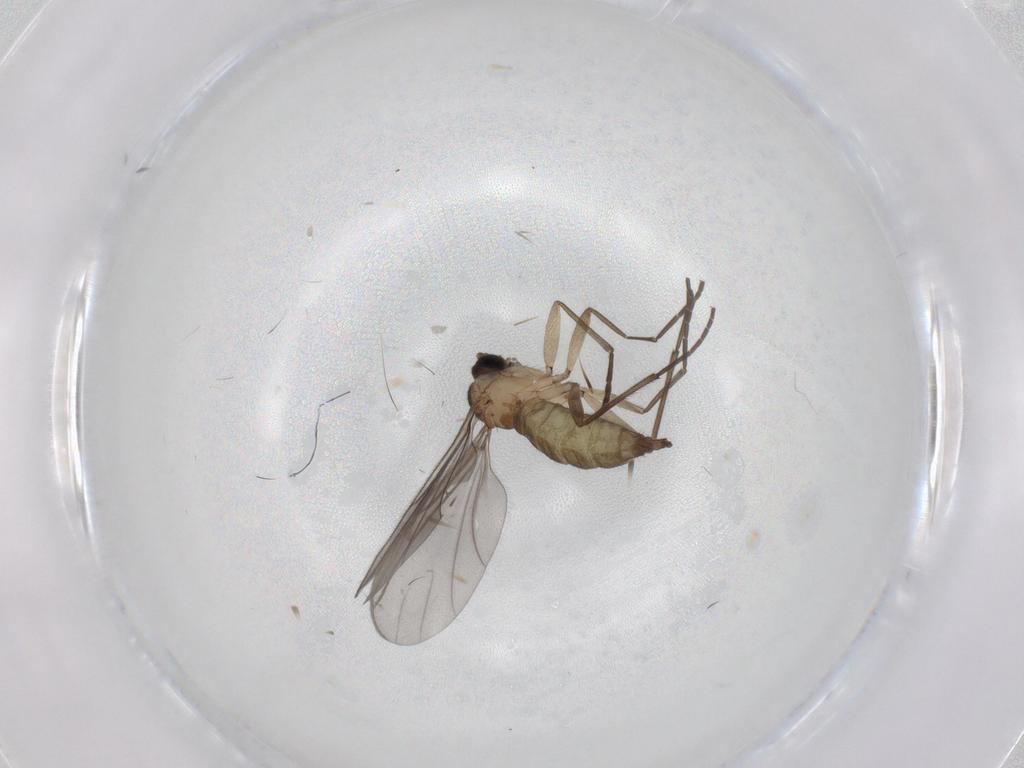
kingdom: Animalia
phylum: Arthropoda
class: Insecta
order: Diptera
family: Sciaridae
